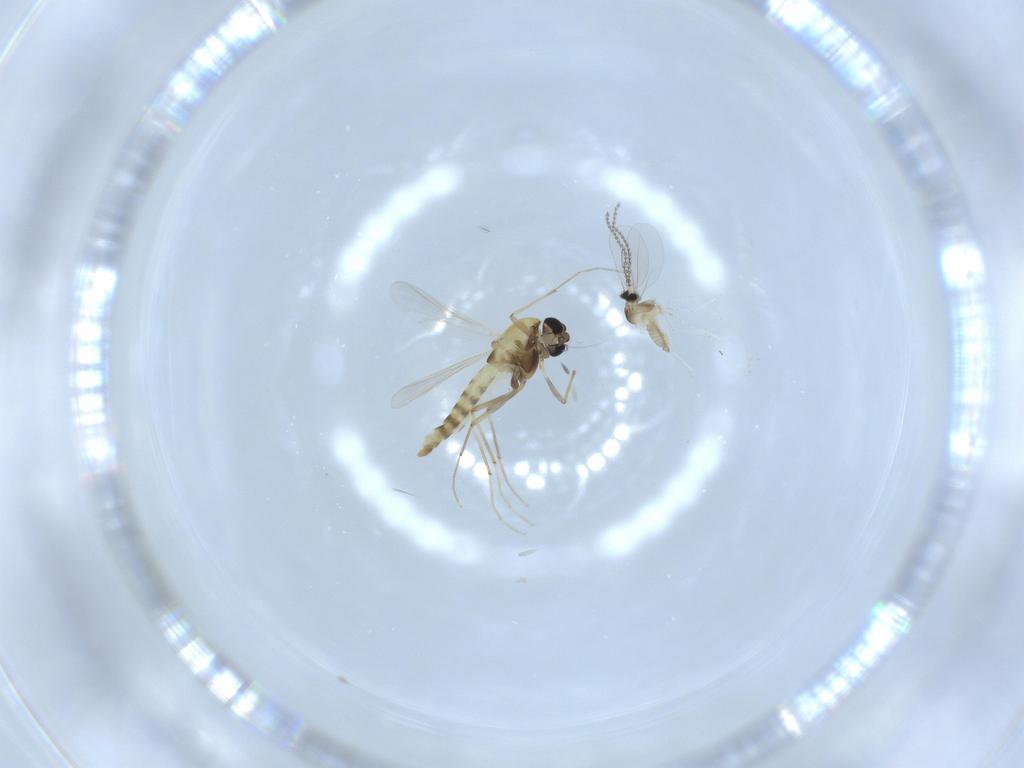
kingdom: Animalia
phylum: Arthropoda
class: Insecta
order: Diptera
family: Chironomidae
